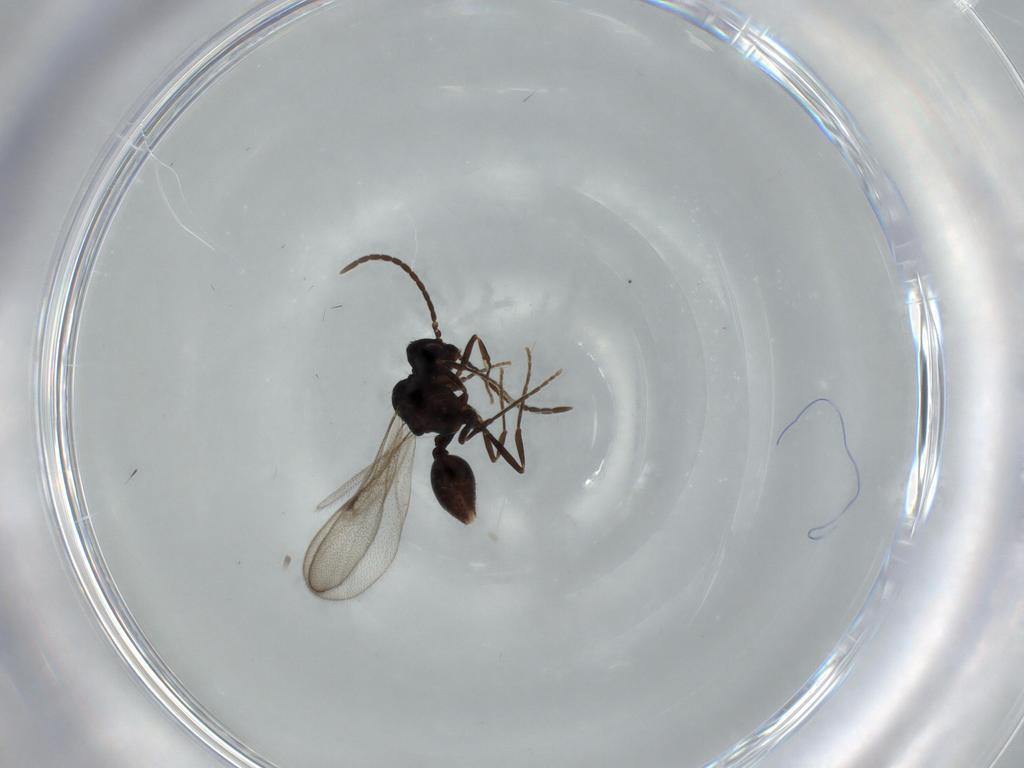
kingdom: Animalia
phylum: Arthropoda
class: Insecta
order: Hymenoptera
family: Formicidae
